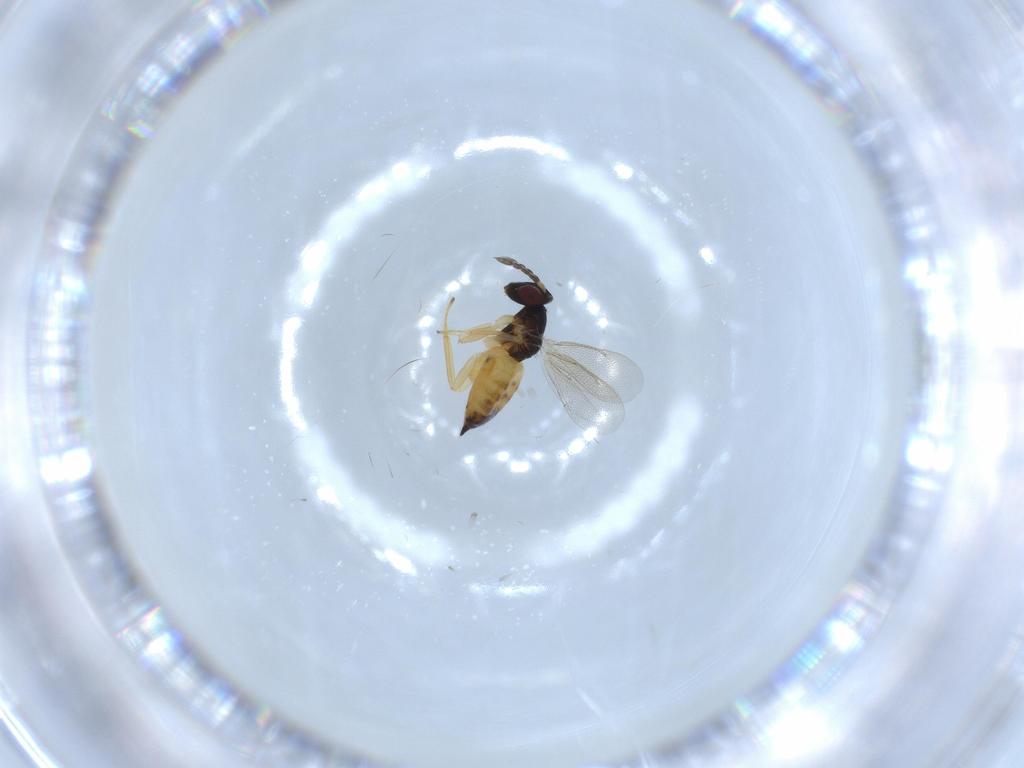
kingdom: Animalia
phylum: Arthropoda
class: Insecta
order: Hymenoptera
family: Eulophidae
